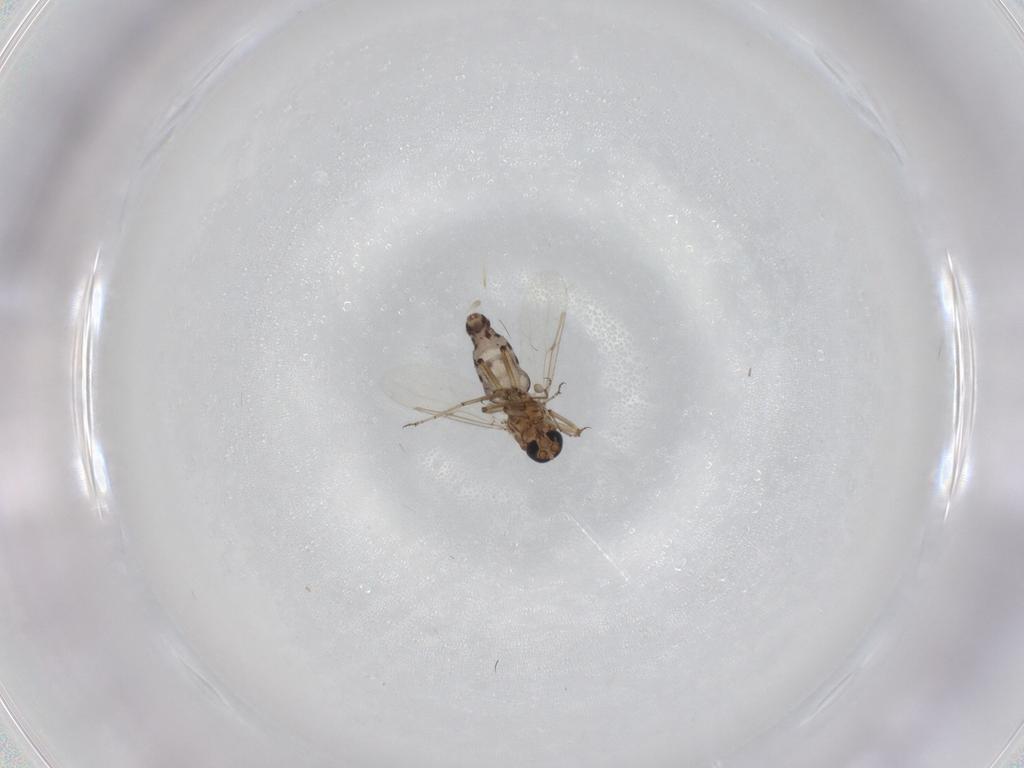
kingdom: Animalia
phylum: Arthropoda
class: Insecta
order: Diptera
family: Ceratopogonidae
